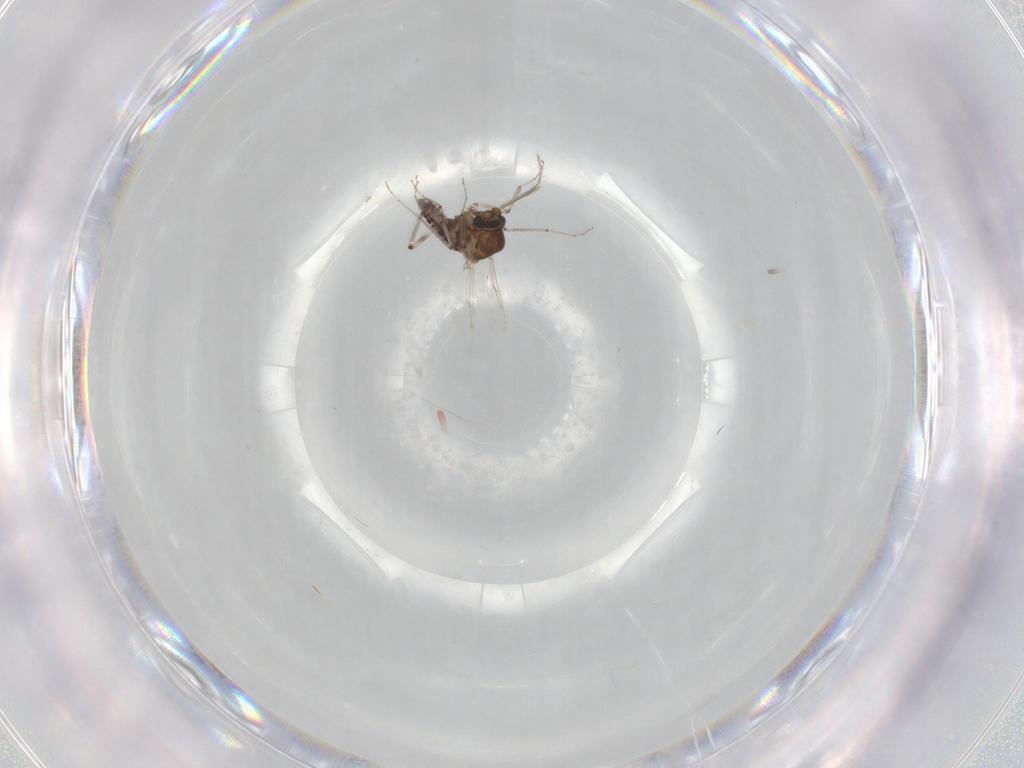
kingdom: Animalia
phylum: Arthropoda
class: Insecta
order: Diptera
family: Ceratopogonidae
